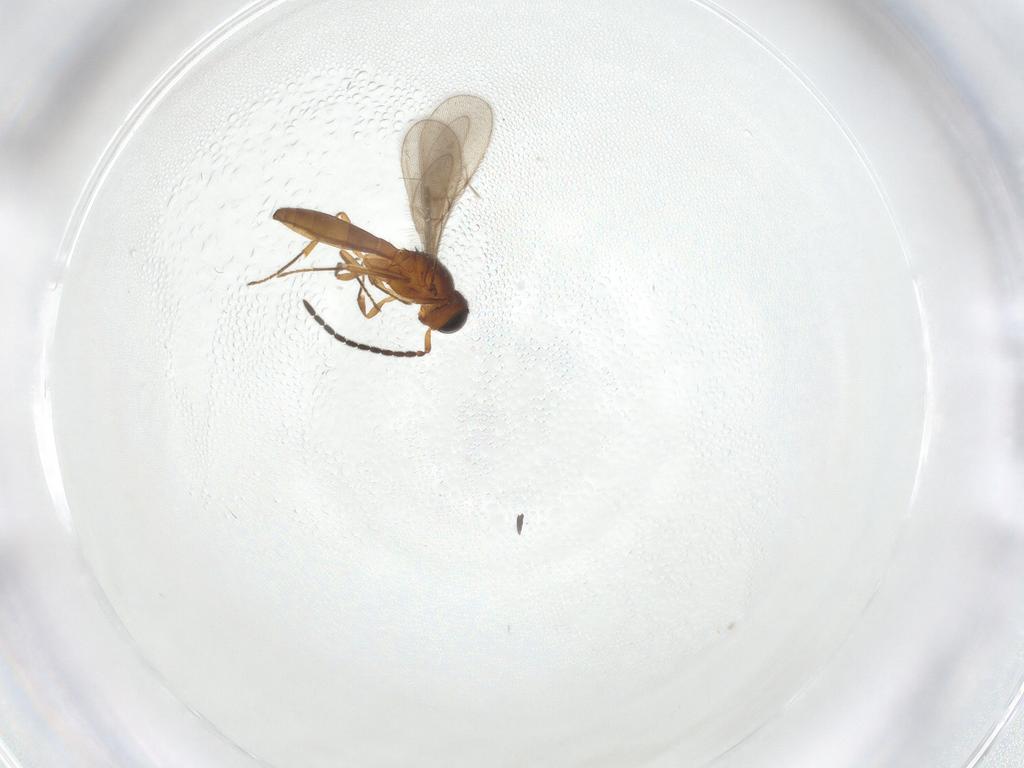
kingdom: Animalia
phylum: Arthropoda
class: Insecta
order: Hymenoptera
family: Scelionidae
